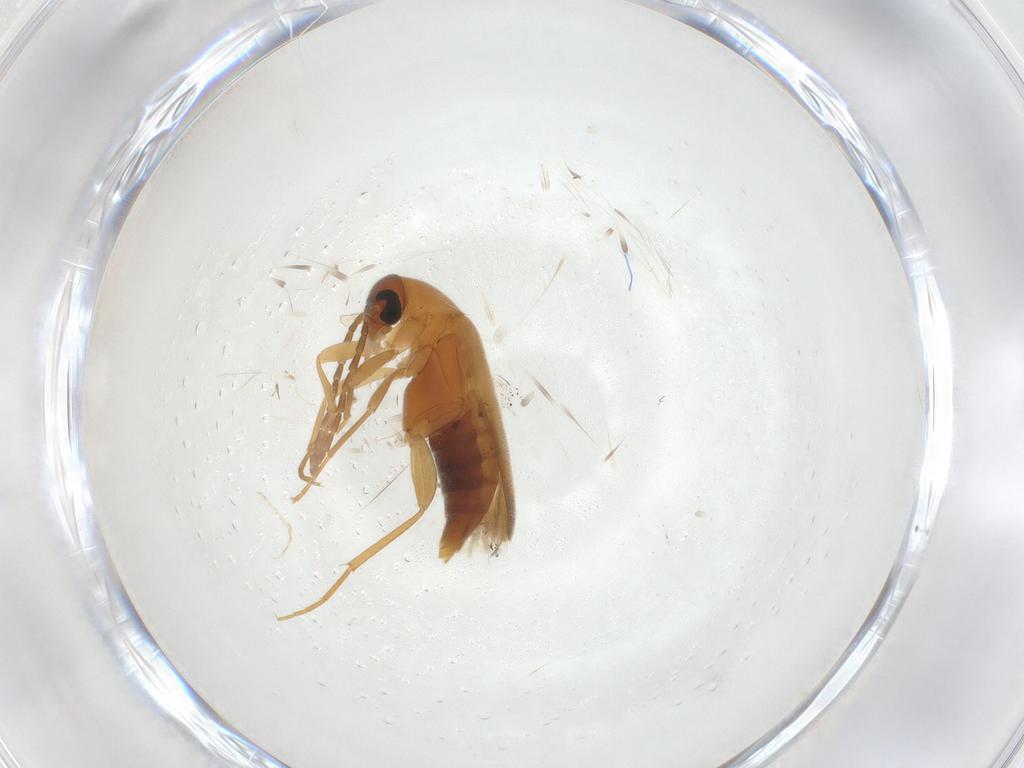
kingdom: Animalia
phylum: Arthropoda
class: Insecta
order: Coleoptera
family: Scraptiidae
